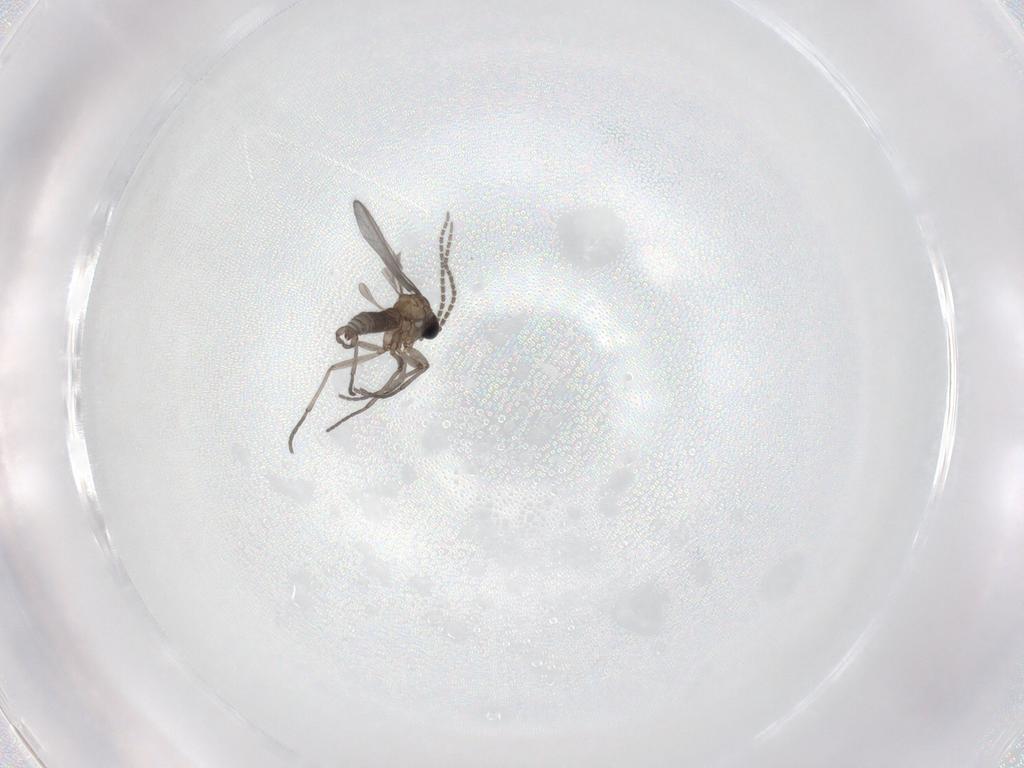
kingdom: Animalia
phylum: Arthropoda
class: Insecta
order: Diptera
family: Sciaridae
